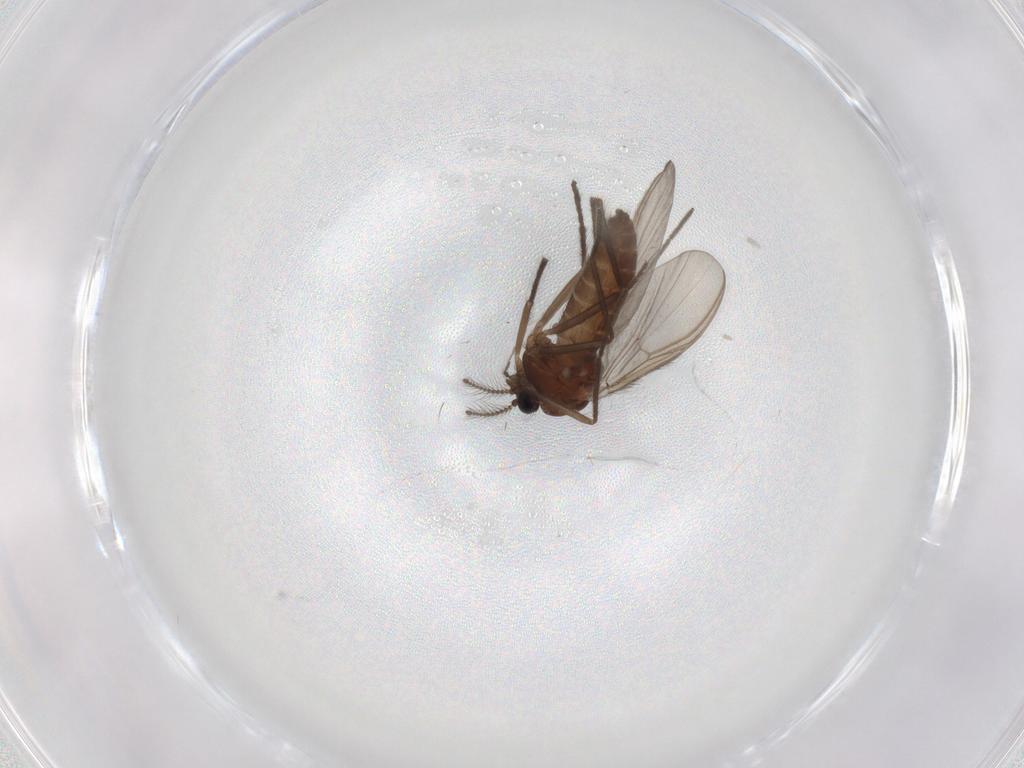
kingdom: Animalia
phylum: Arthropoda
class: Insecta
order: Diptera
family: Chironomidae
